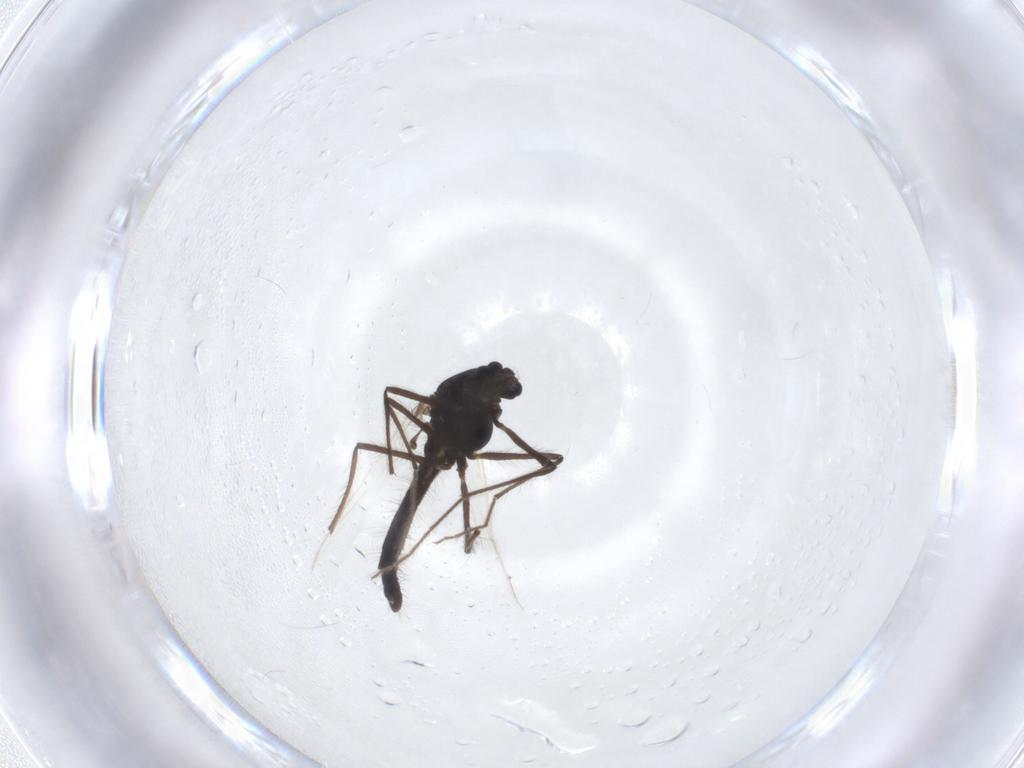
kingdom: Animalia
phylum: Arthropoda
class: Insecta
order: Diptera
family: Chironomidae
